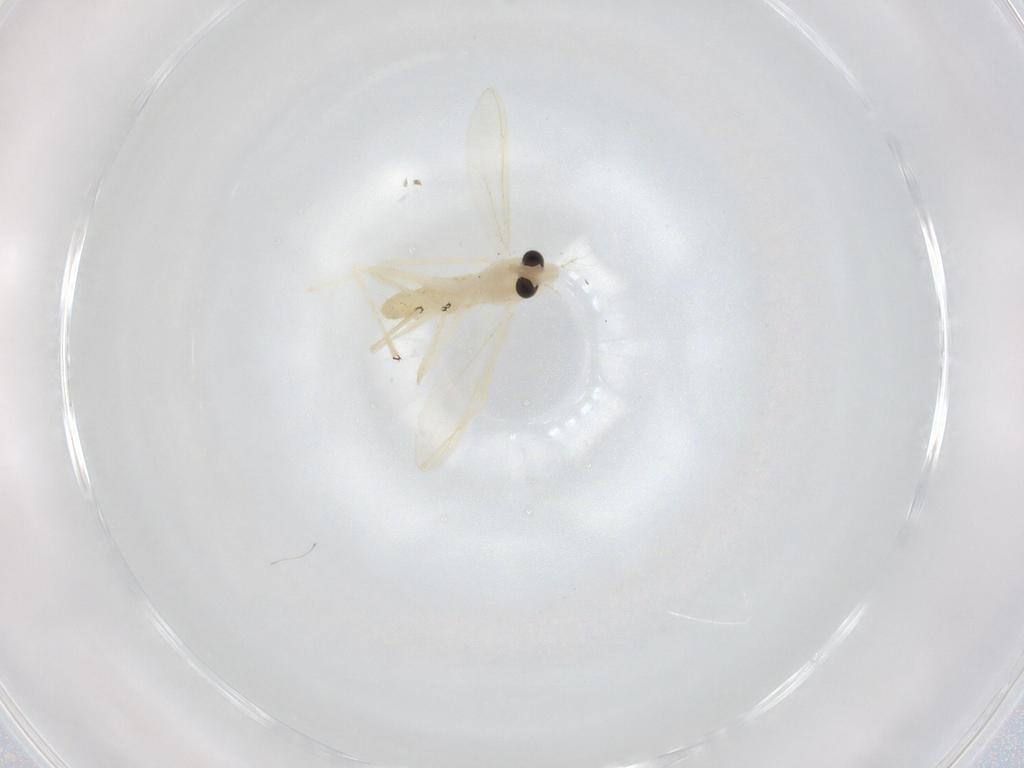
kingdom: Animalia
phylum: Arthropoda
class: Insecta
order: Diptera
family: Chironomidae
